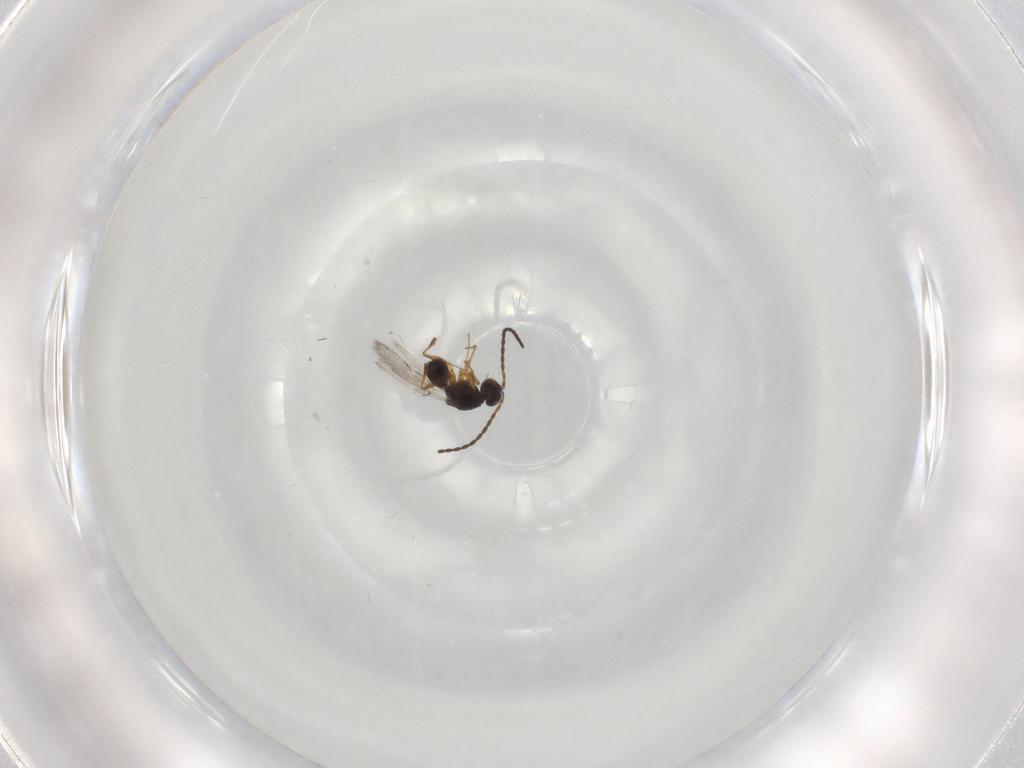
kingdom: Animalia
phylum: Arthropoda
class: Insecta
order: Hymenoptera
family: Figitidae
